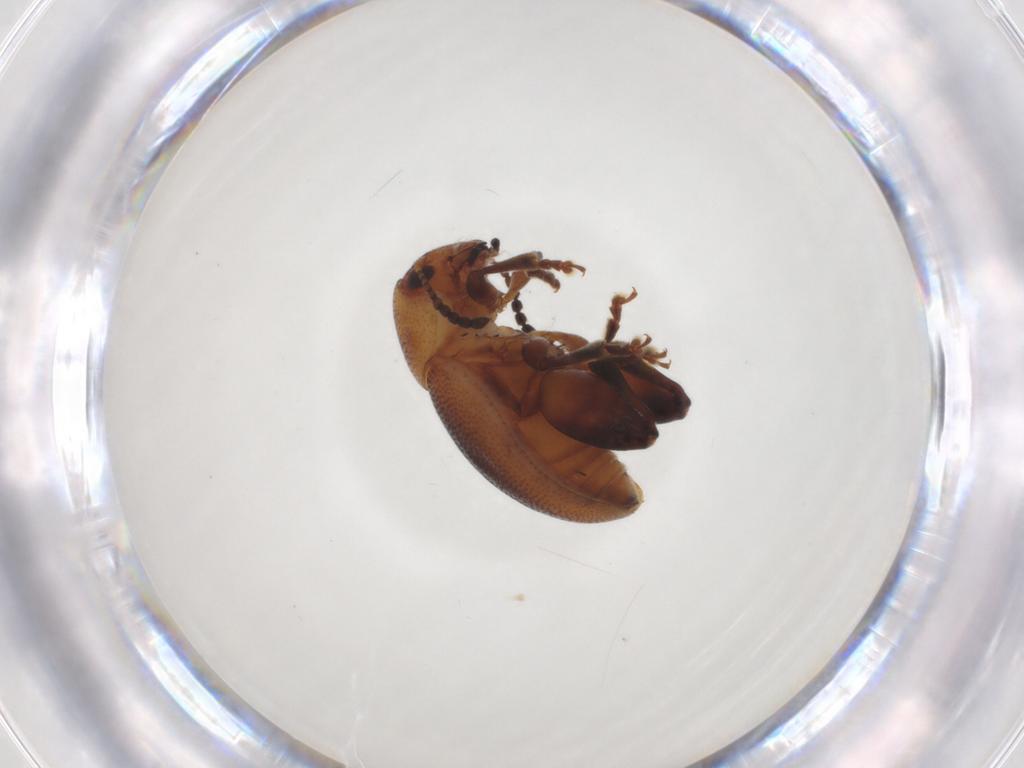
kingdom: Animalia
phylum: Arthropoda
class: Insecta
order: Coleoptera
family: Chrysomelidae
